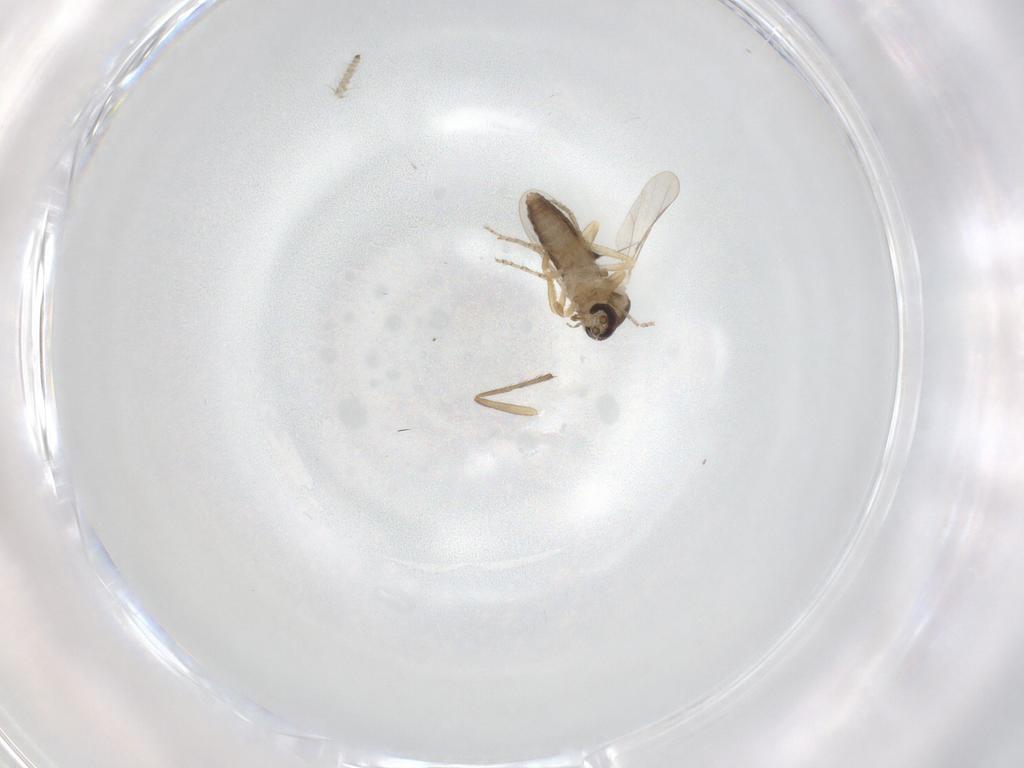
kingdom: Animalia
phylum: Arthropoda
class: Insecta
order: Diptera
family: Ceratopogonidae
